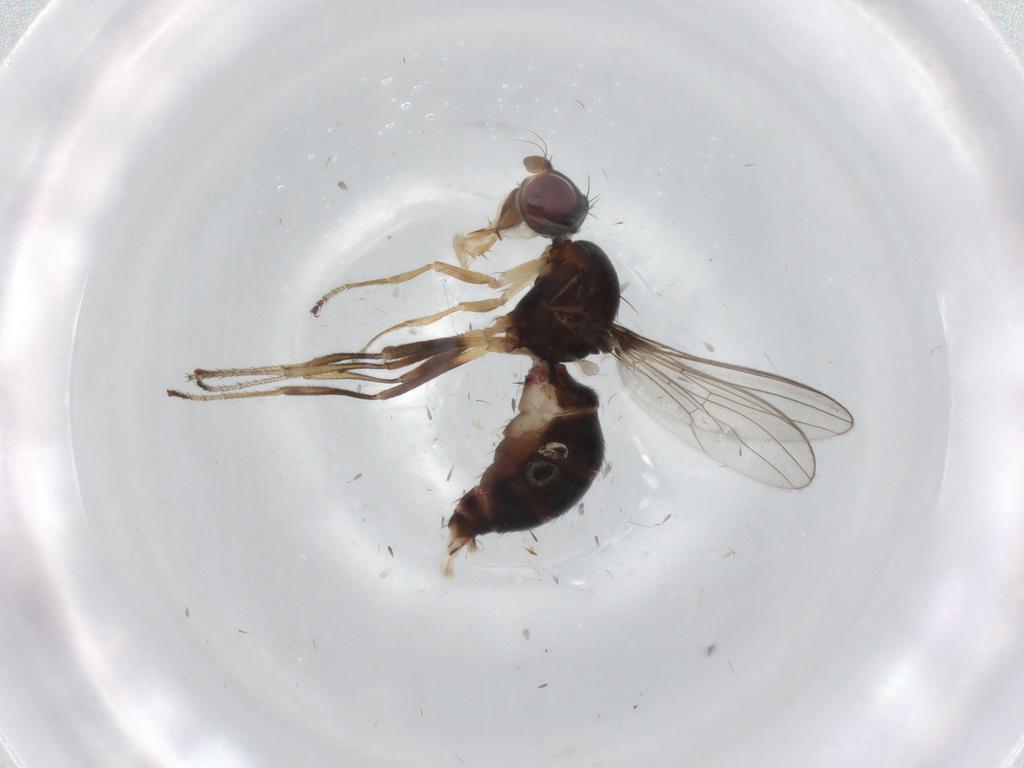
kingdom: Animalia
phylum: Arthropoda
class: Insecta
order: Diptera
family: Sepsidae
